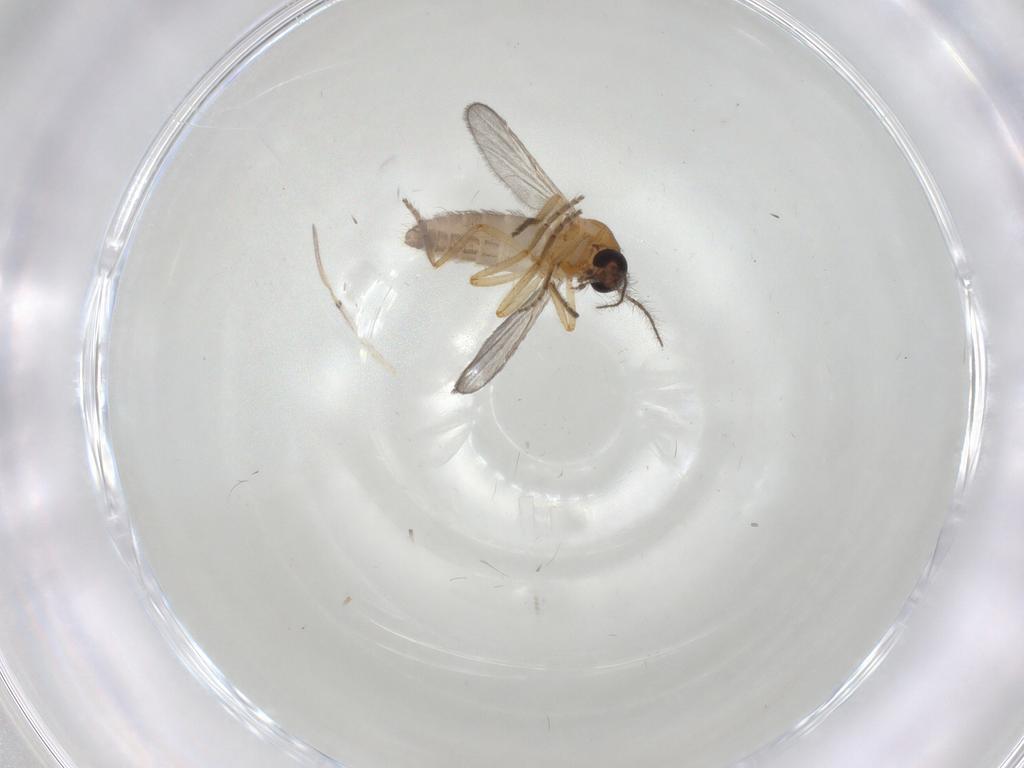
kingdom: Animalia
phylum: Arthropoda
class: Insecta
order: Diptera
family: Ceratopogonidae
